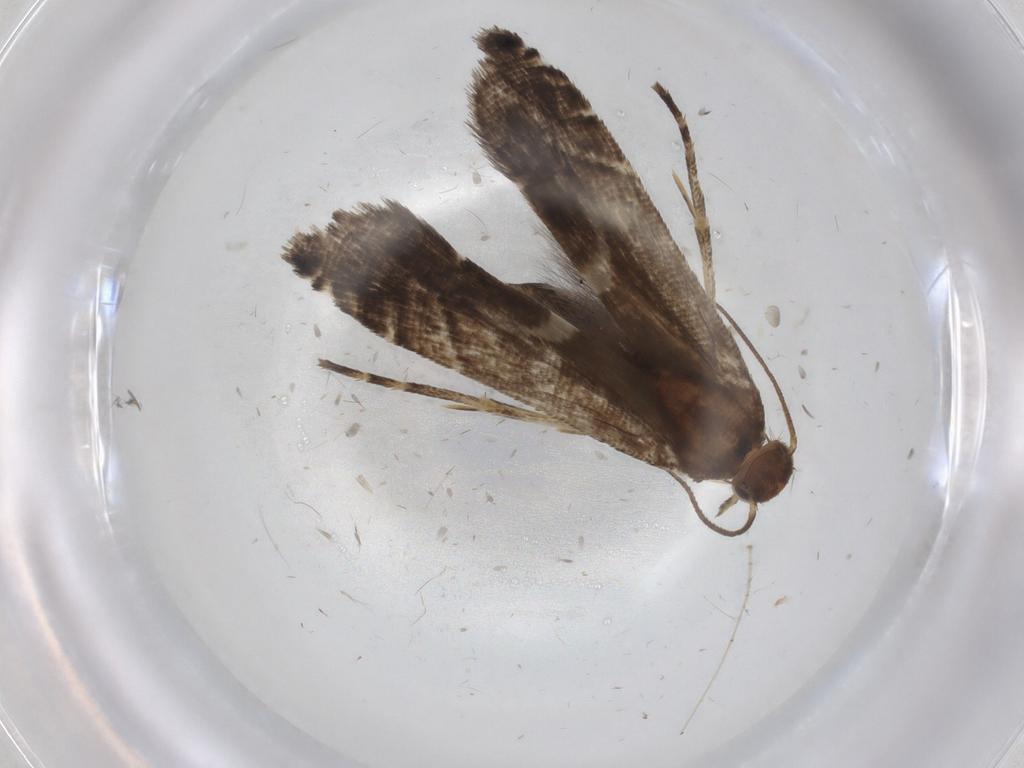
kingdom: Animalia
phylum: Arthropoda
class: Insecta
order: Lepidoptera
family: Glyphipterigidae
